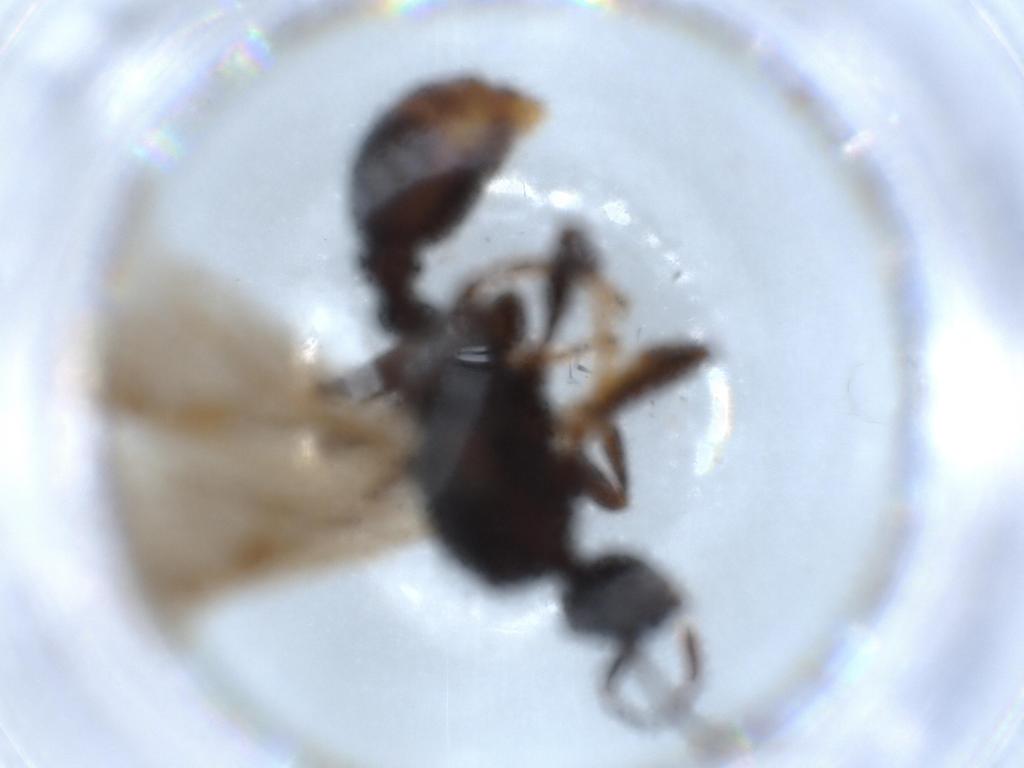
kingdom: Animalia
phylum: Arthropoda
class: Insecta
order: Hymenoptera
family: Formicidae
